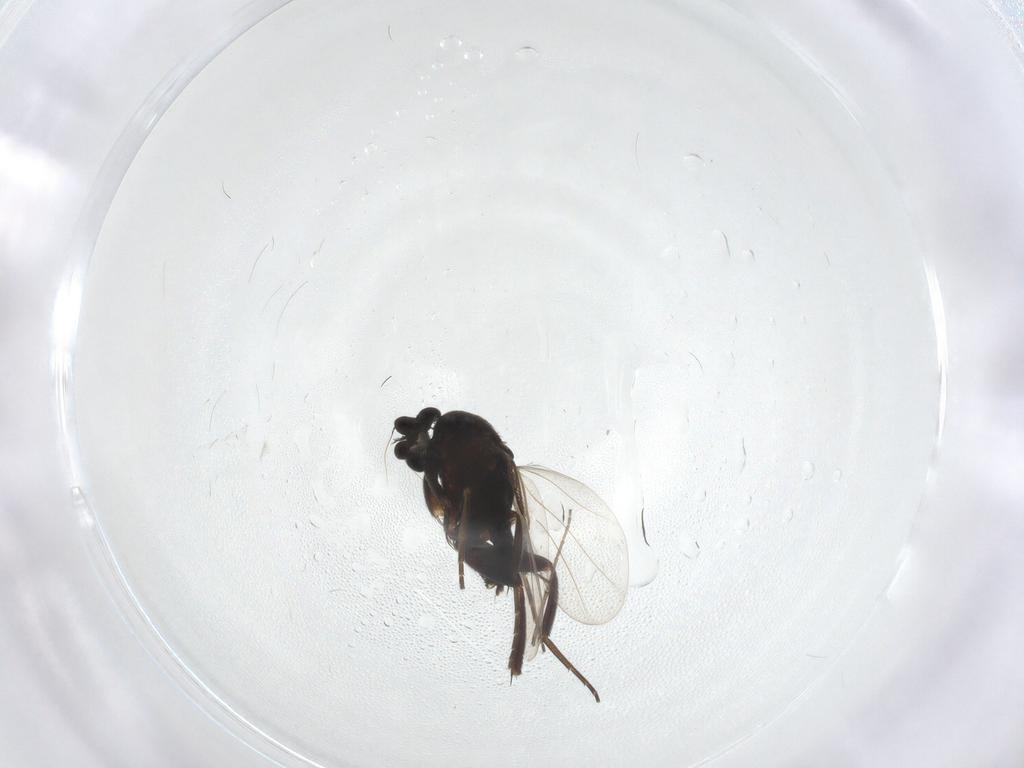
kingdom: Animalia
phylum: Arthropoda
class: Insecta
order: Diptera
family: Phoridae
